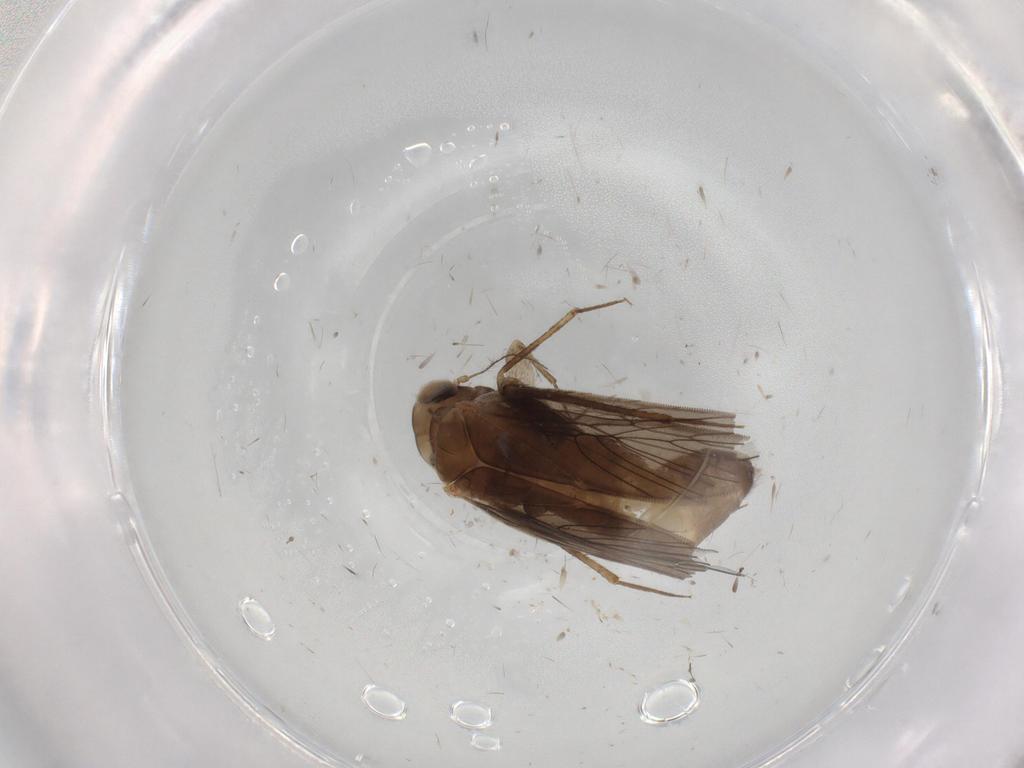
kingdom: Animalia
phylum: Arthropoda
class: Insecta
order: Psocodea
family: Lepidopsocidae
